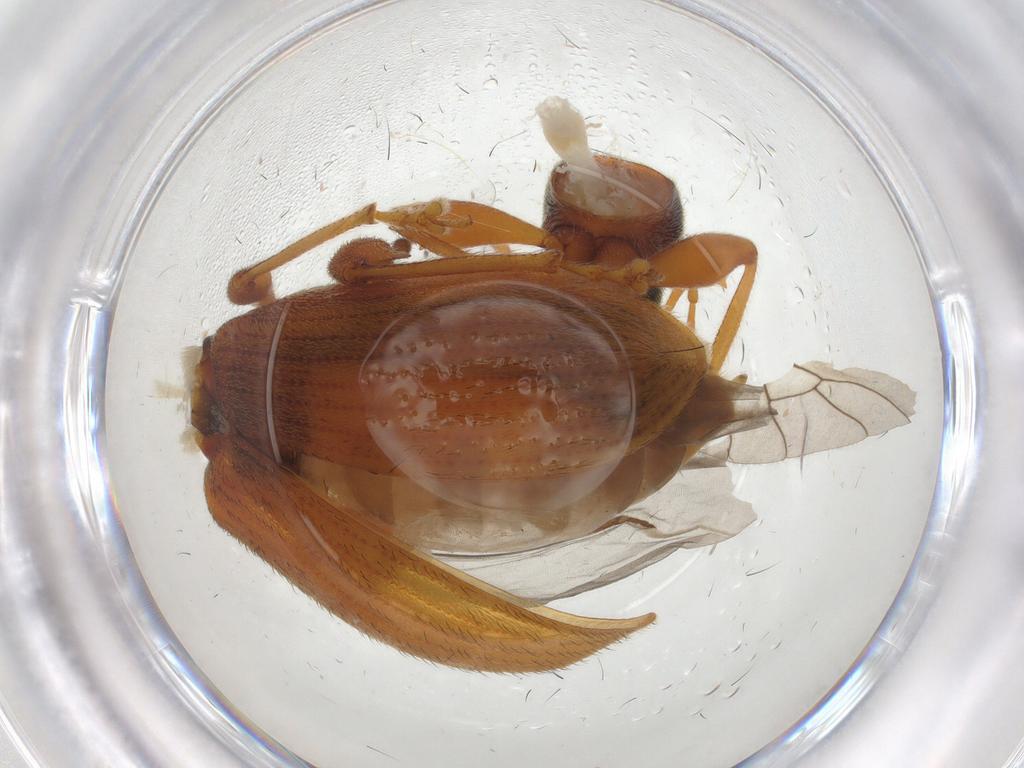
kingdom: Animalia
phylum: Arthropoda
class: Insecta
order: Coleoptera
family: Curculionidae
